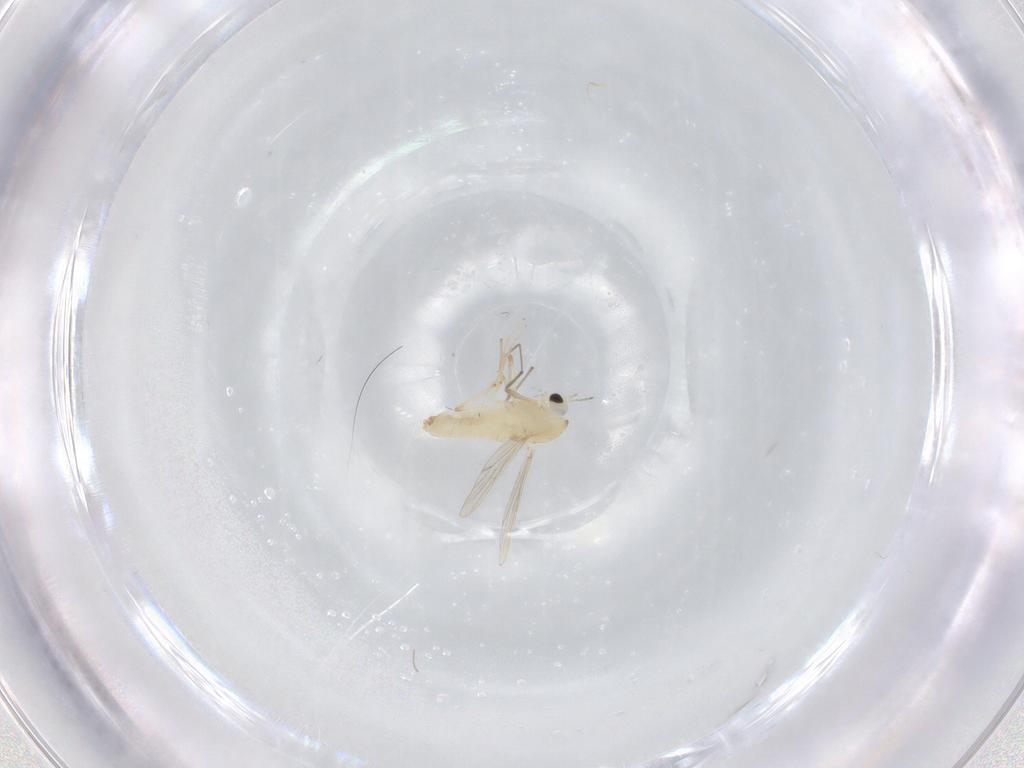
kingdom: Animalia
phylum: Arthropoda
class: Insecta
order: Diptera
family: Chironomidae
